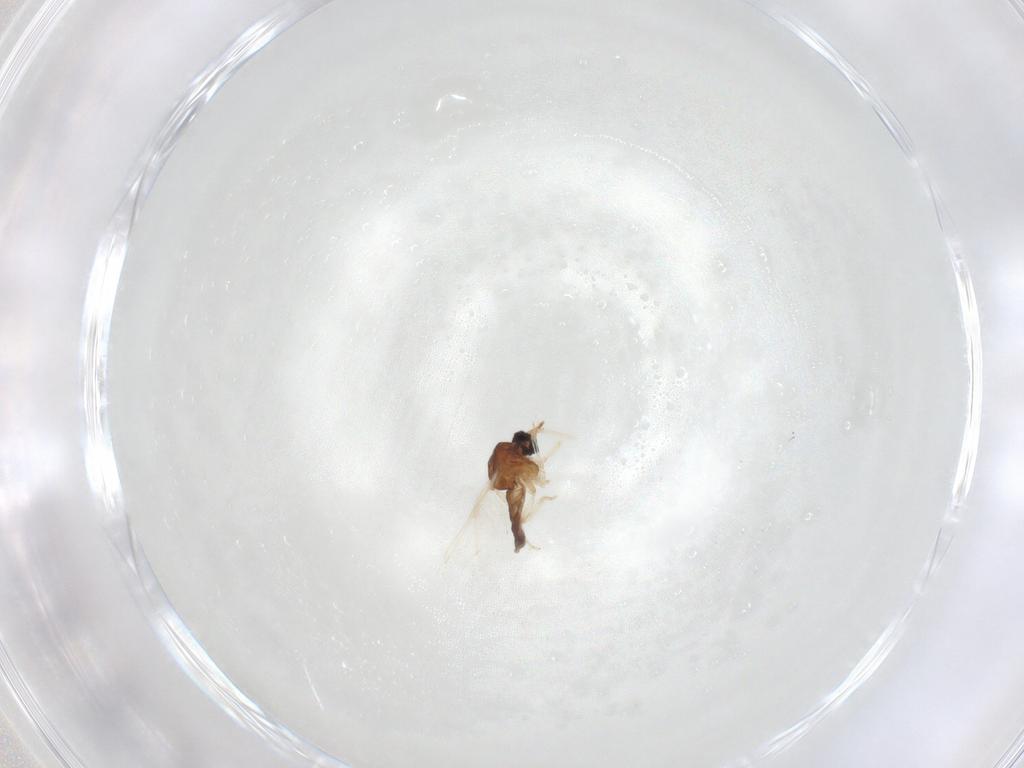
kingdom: Animalia
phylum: Arthropoda
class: Insecta
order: Diptera
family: Ceratopogonidae
